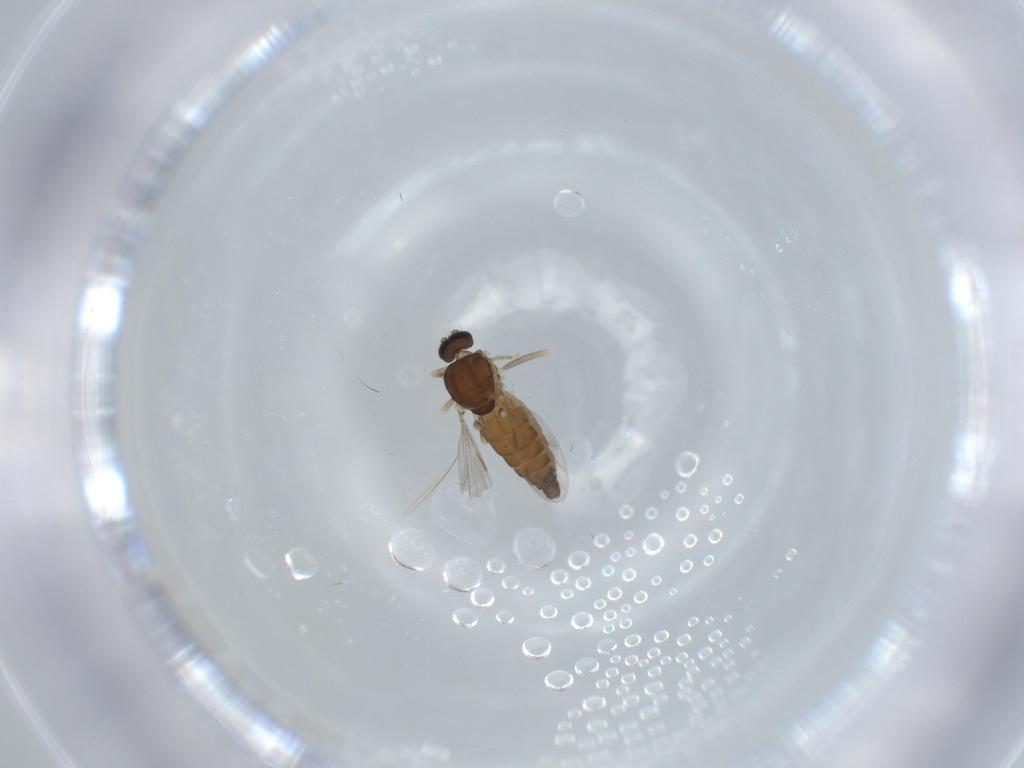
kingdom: Animalia
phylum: Arthropoda
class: Insecta
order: Diptera
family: Ceratopogonidae
